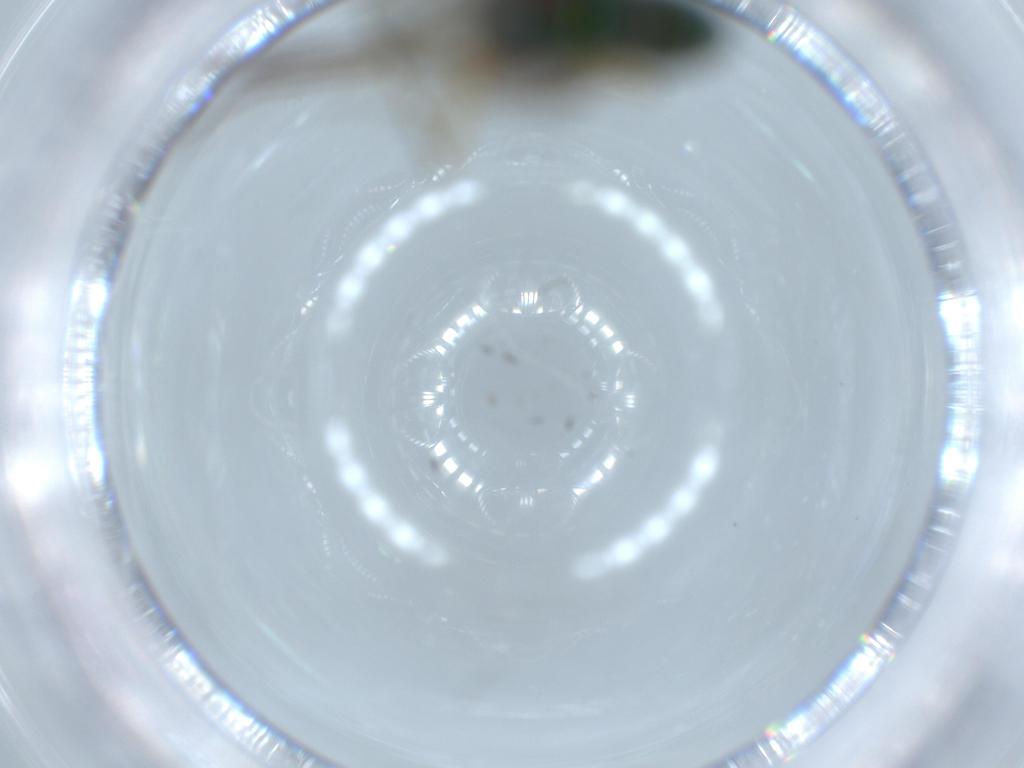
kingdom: Animalia
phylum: Arthropoda
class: Insecta
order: Diptera
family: Dolichopodidae
